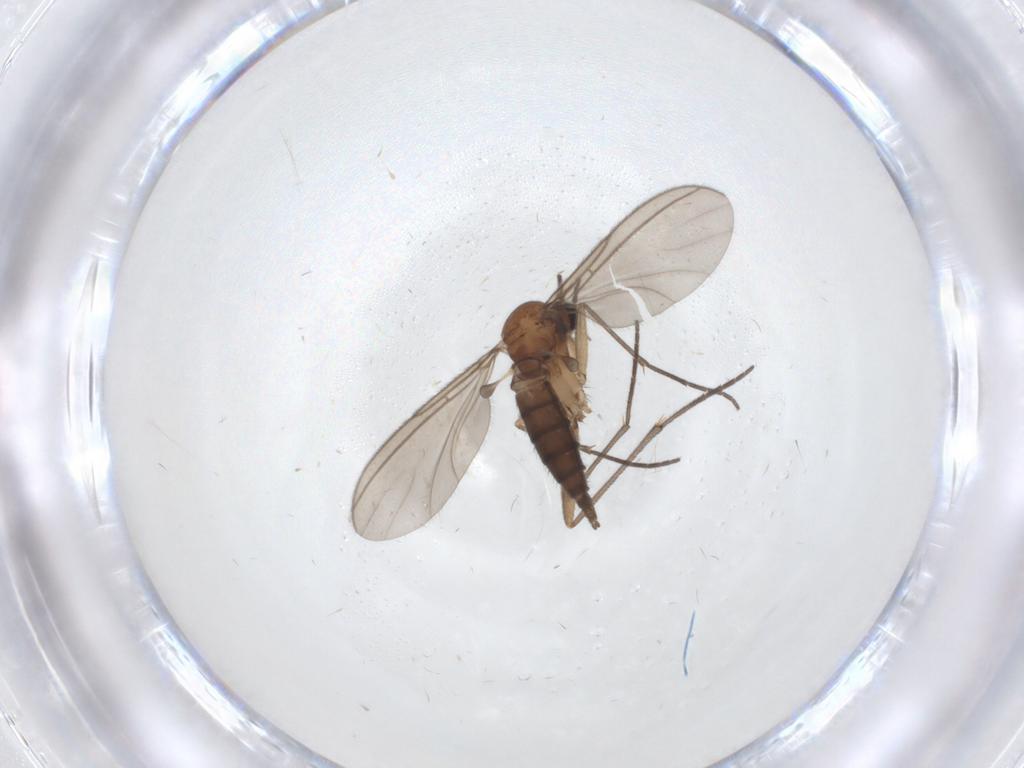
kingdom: Animalia
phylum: Arthropoda
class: Insecta
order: Diptera
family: Sciaridae
